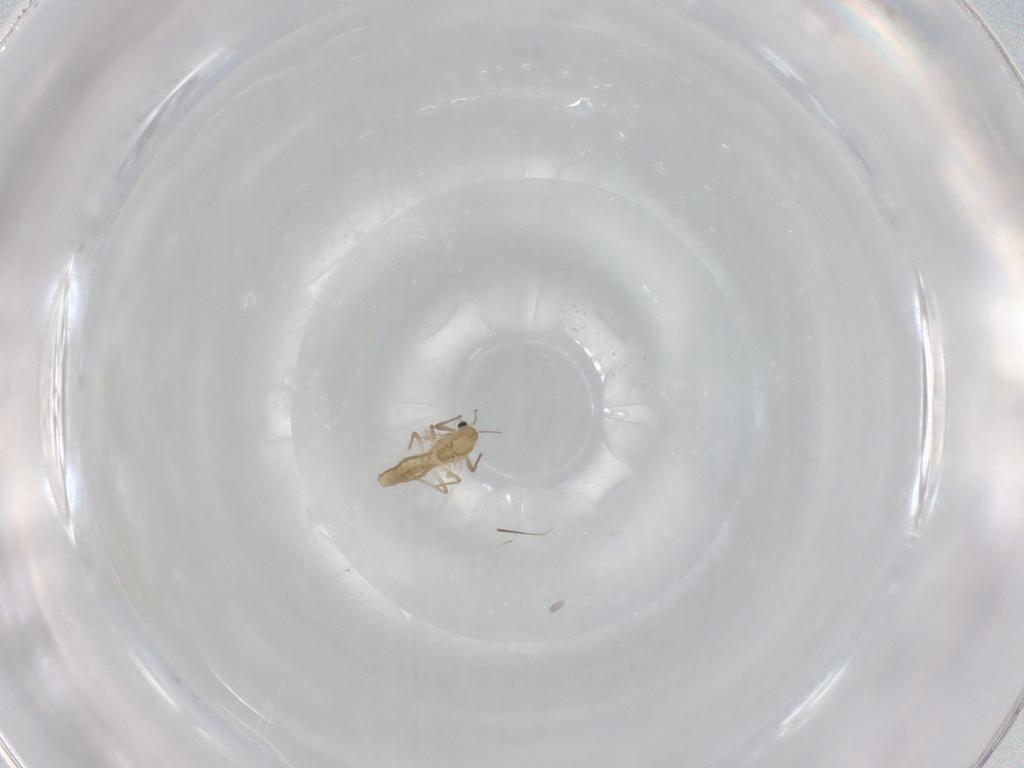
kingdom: Animalia
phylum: Arthropoda
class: Insecta
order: Diptera
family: Chironomidae
